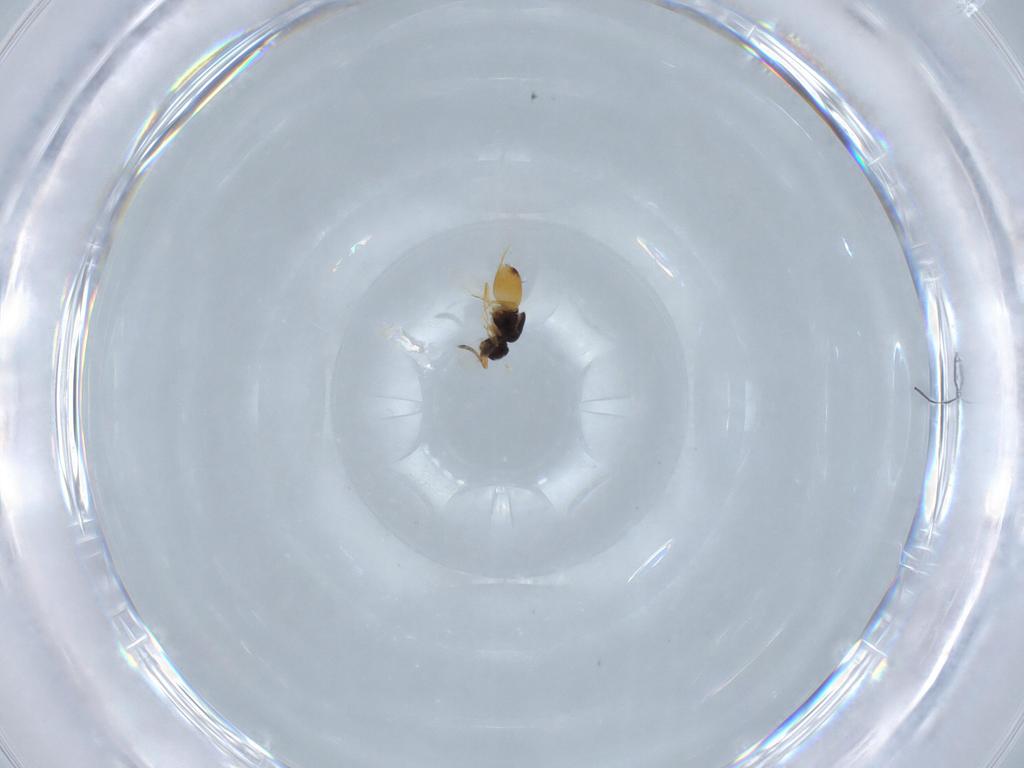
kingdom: Animalia
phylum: Arthropoda
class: Insecta
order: Hymenoptera
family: Platygastridae
